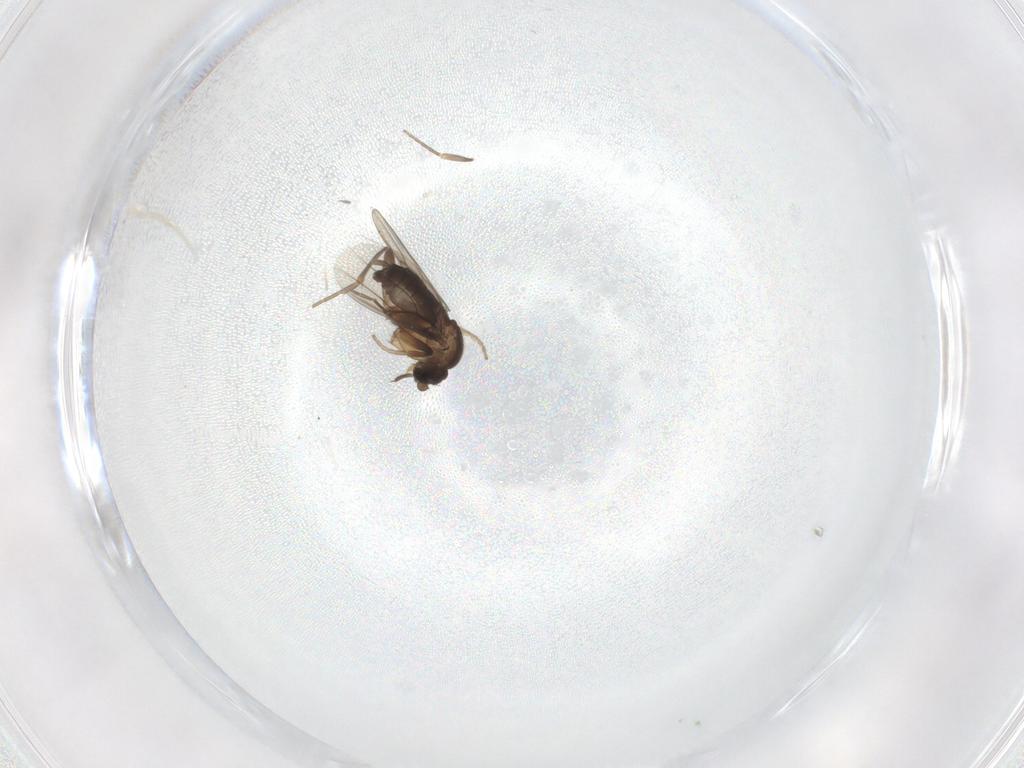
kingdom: Animalia
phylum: Arthropoda
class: Insecta
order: Diptera
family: Phoridae
